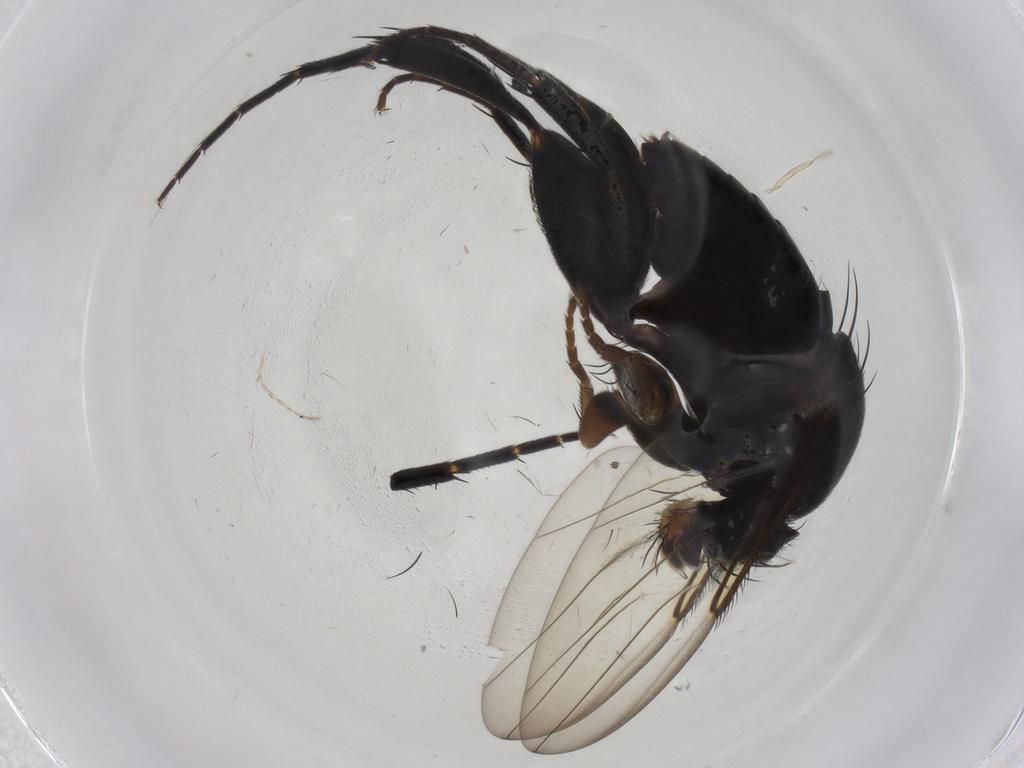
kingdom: Animalia
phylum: Arthropoda
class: Insecta
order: Diptera
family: Phoridae
